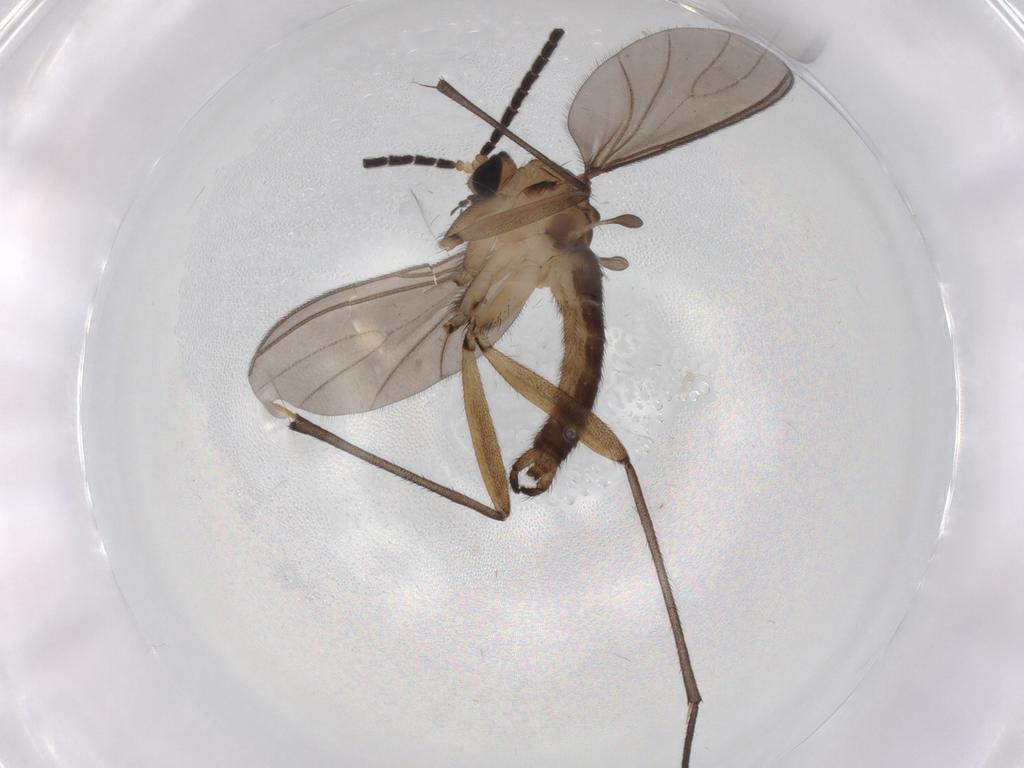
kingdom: Animalia
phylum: Arthropoda
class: Insecta
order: Diptera
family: Sciaridae
